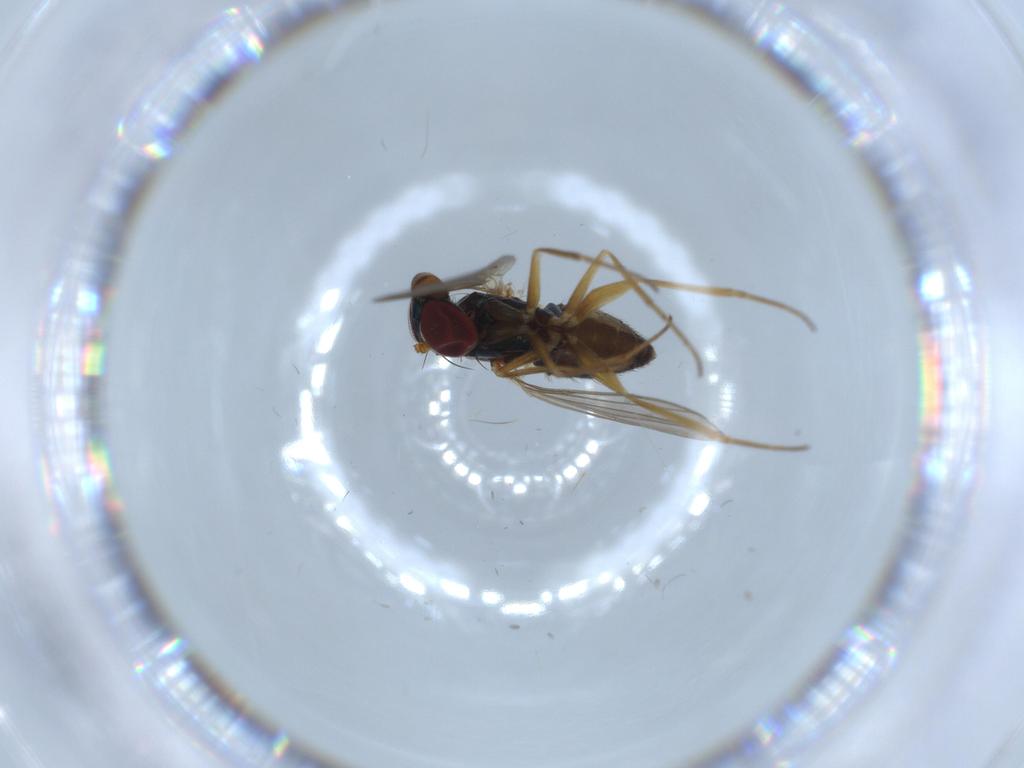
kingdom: Animalia
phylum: Arthropoda
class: Insecta
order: Diptera
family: Dolichopodidae
